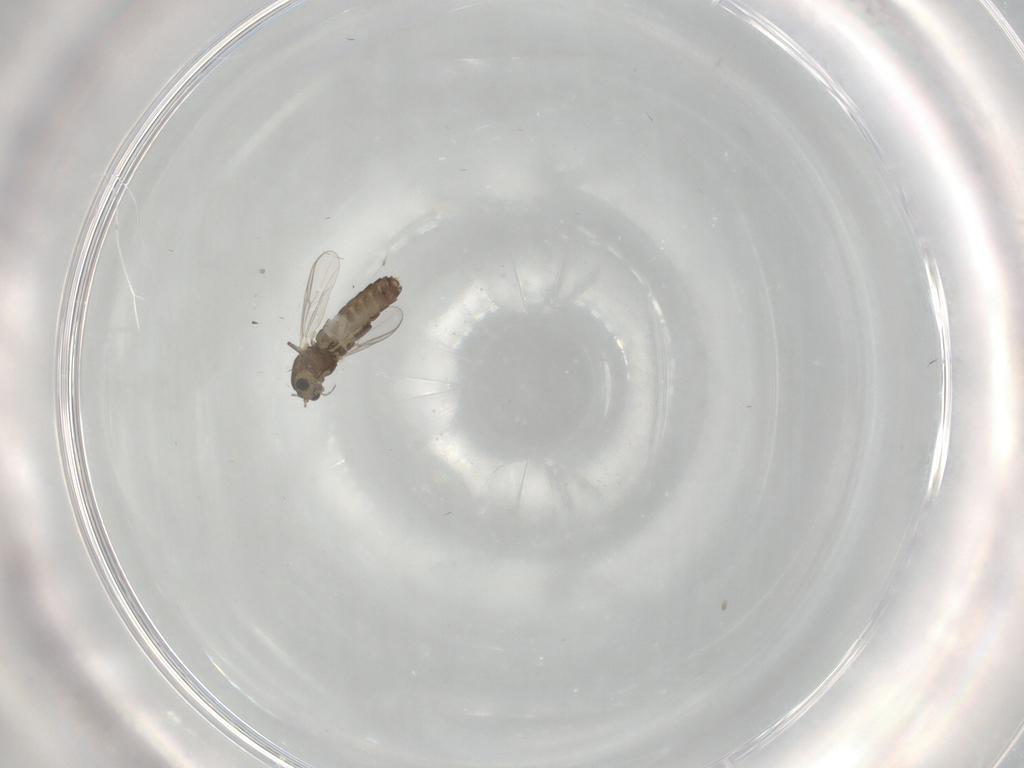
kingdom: Animalia
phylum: Arthropoda
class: Insecta
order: Diptera
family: Chironomidae
